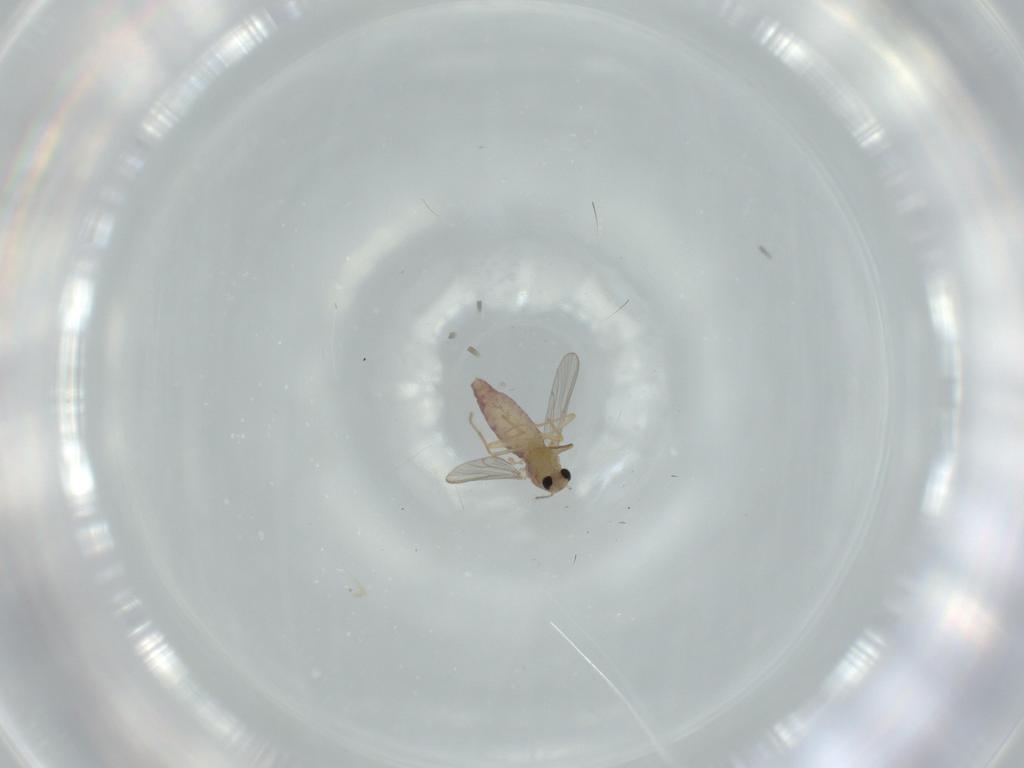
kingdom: Animalia
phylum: Arthropoda
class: Insecta
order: Diptera
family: Chironomidae
